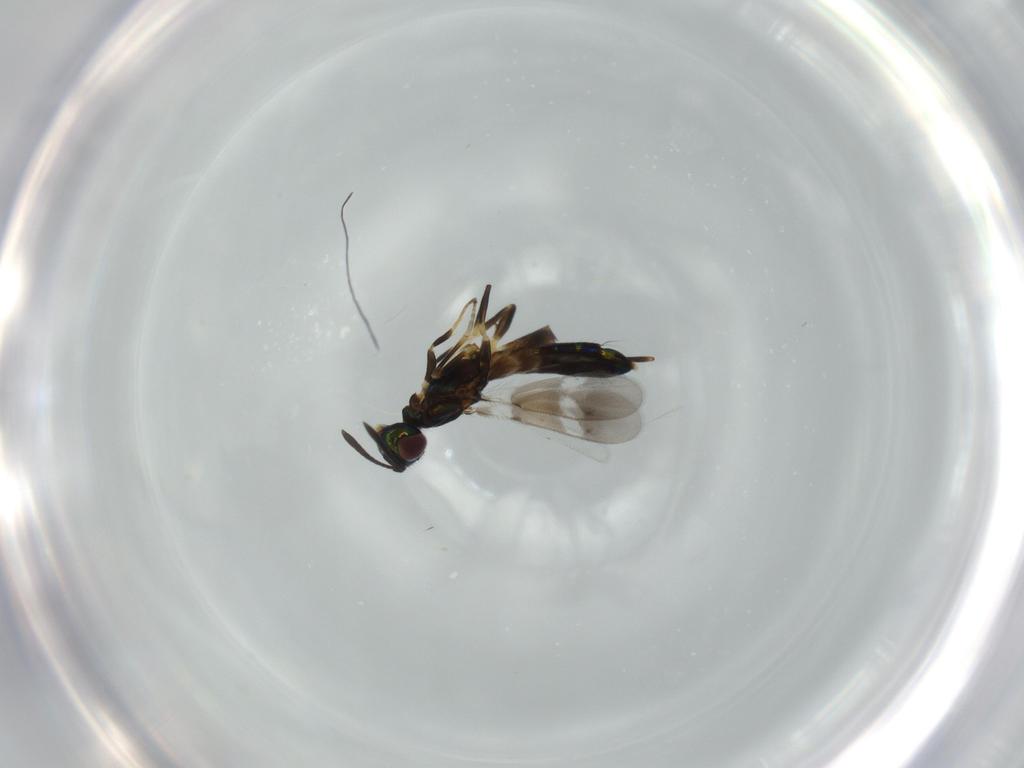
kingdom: Animalia
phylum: Arthropoda
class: Insecta
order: Hymenoptera
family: Eupelmidae
